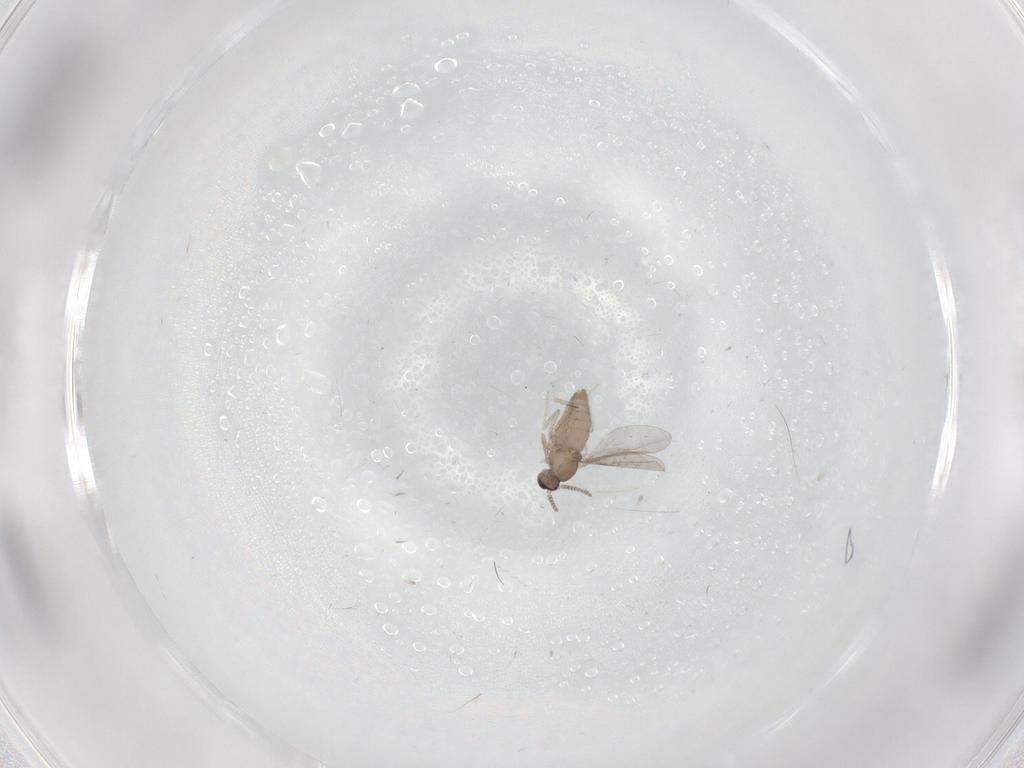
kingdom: Animalia
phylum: Arthropoda
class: Insecta
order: Diptera
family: Cecidomyiidae
